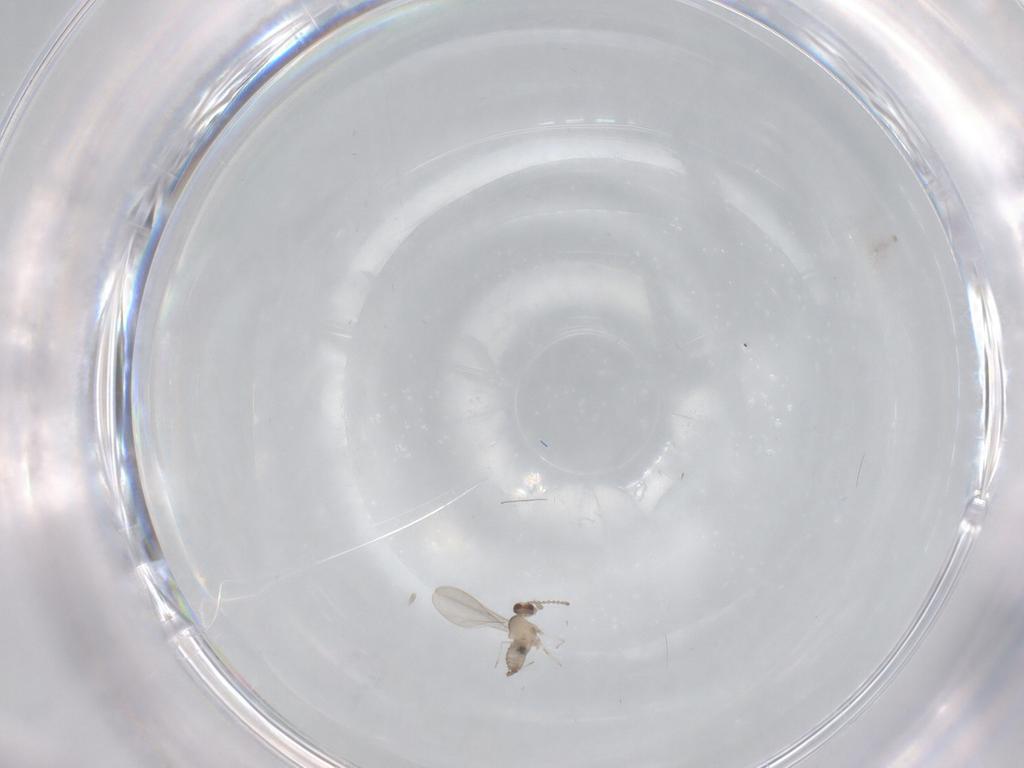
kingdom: Animalia
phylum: Arthropoda
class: Insecta
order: Diptera
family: Cecidomyiidae
